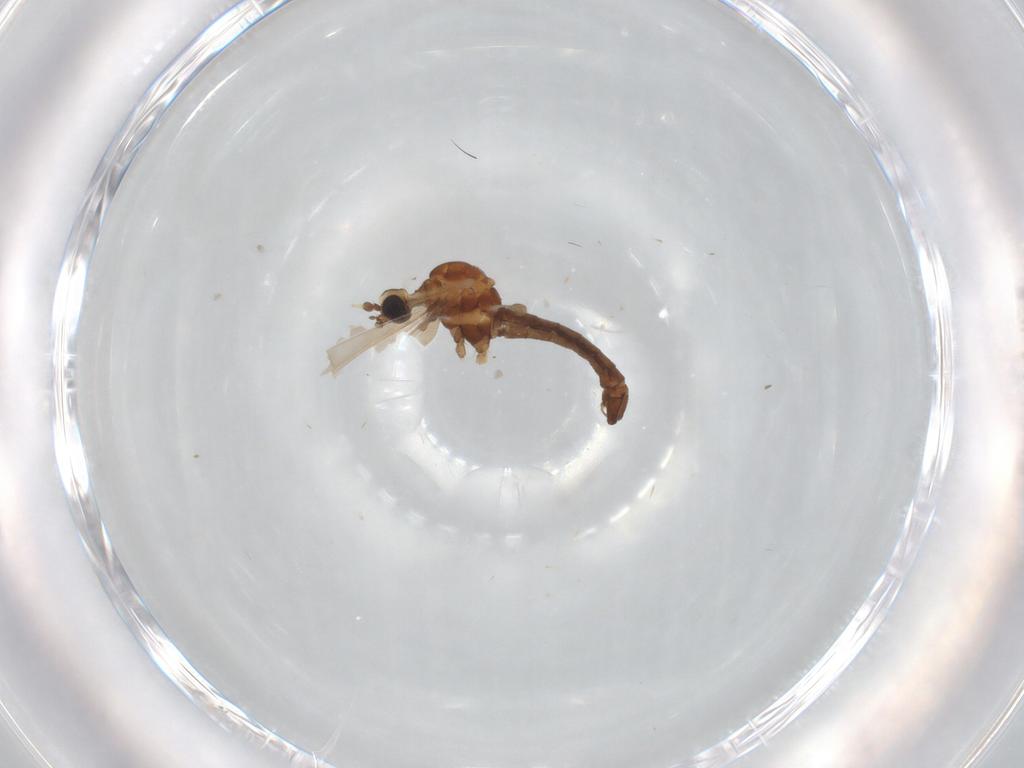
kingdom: Animalia
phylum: Arthropoda
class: Insecta
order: Diptera
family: Limoniidae
